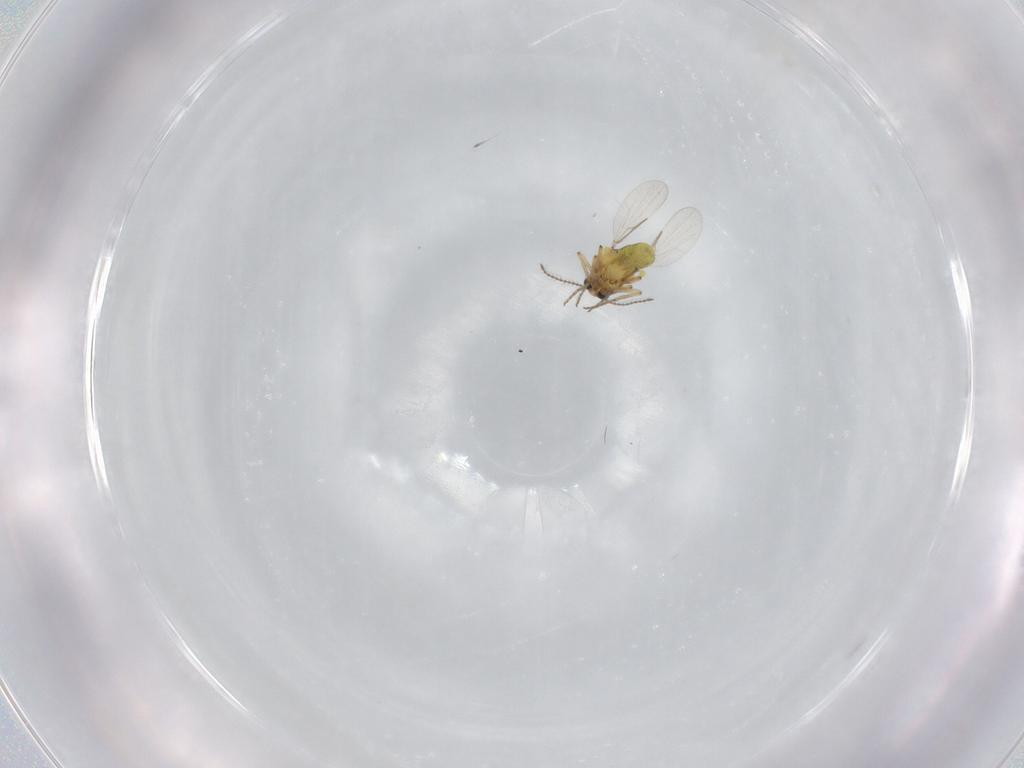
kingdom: Animalia
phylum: Arthropoda
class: Insecta
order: Diptera
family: Ceratopogonidae
